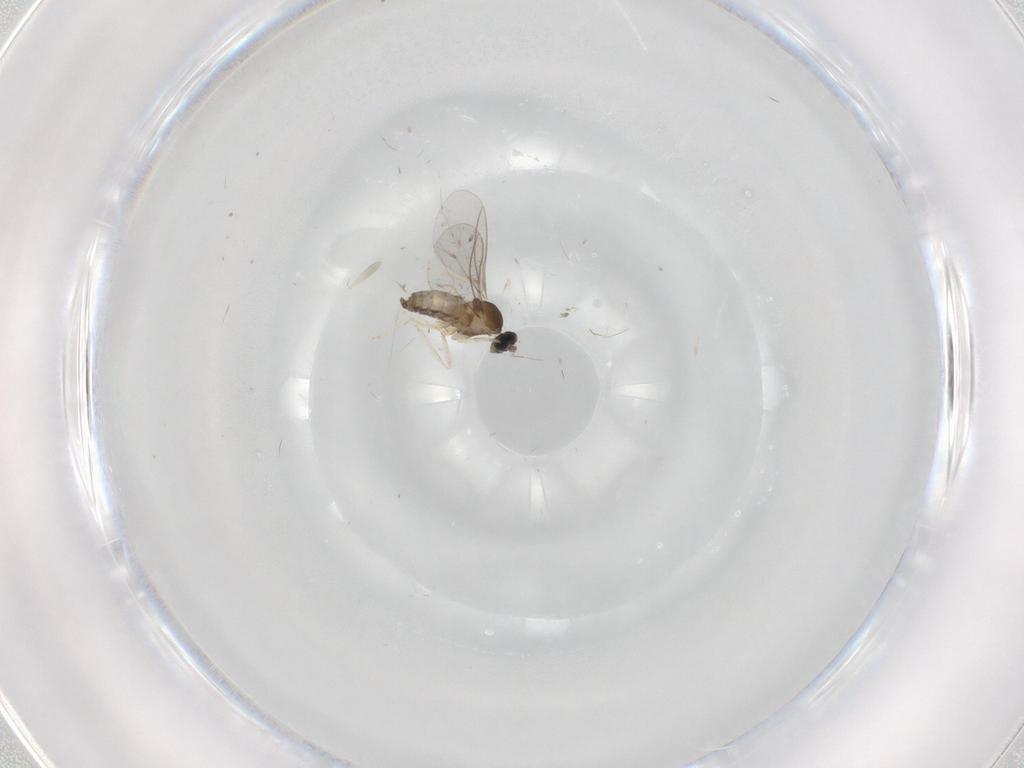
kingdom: Animalia
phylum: Arthropoda
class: Insecta
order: Diptera
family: Cecidomyiidae
